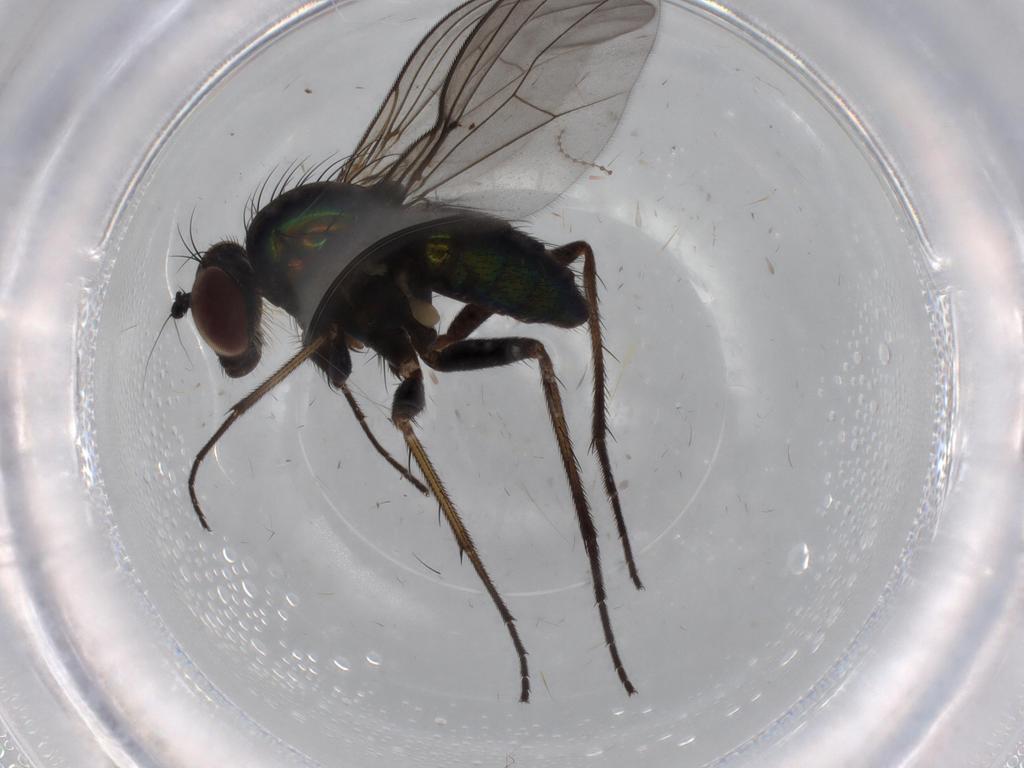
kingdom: Animalia
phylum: Arthropoda
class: Insecta
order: Diptera
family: Dolichopodidae
